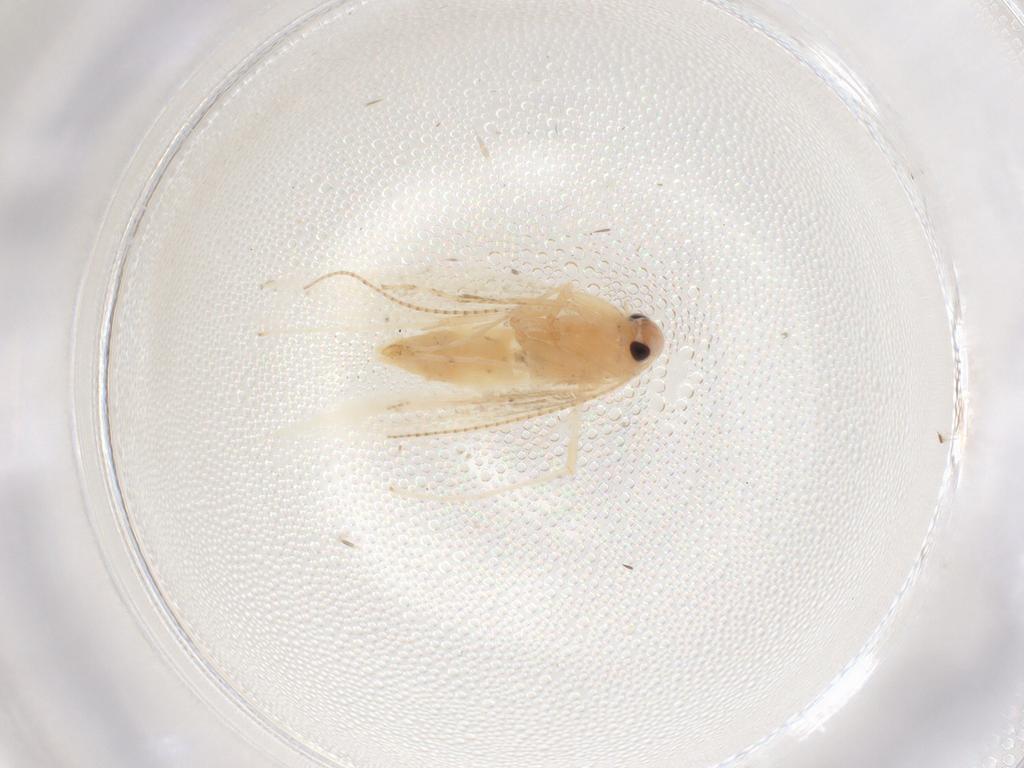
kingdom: Animalia
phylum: Arthropoda
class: Insecta
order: Lepidoptera
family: Gracillariidae
